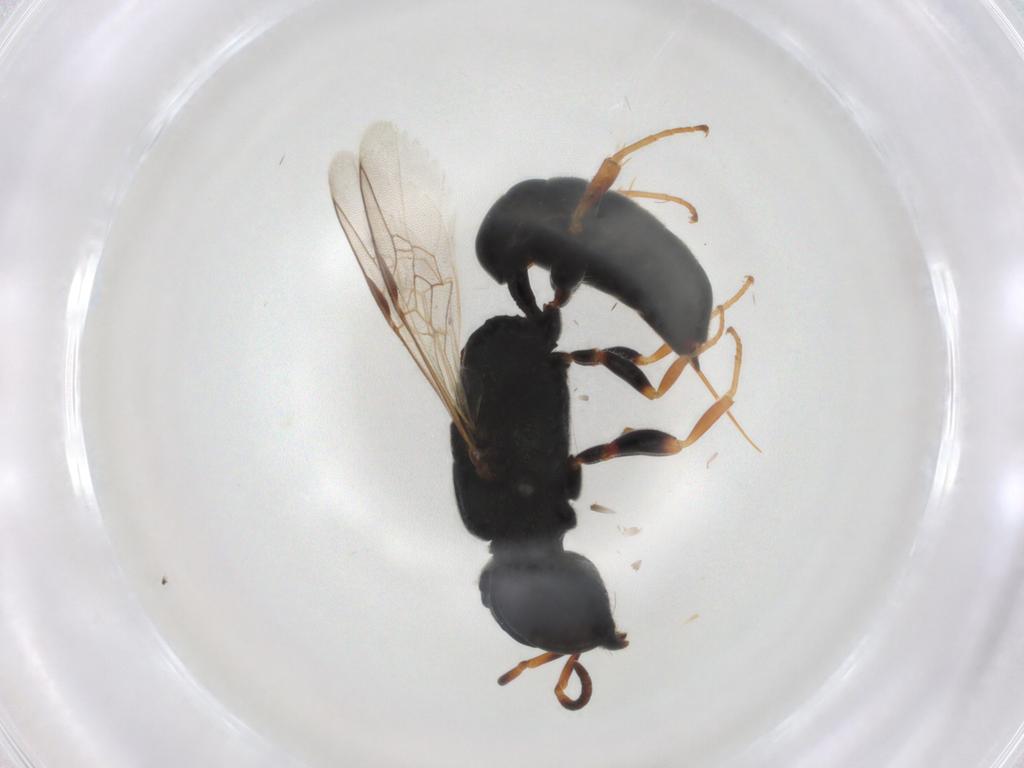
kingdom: Animalia
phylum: Arthropoda
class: Insecta
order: Hymenoptera
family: Crabronidae
